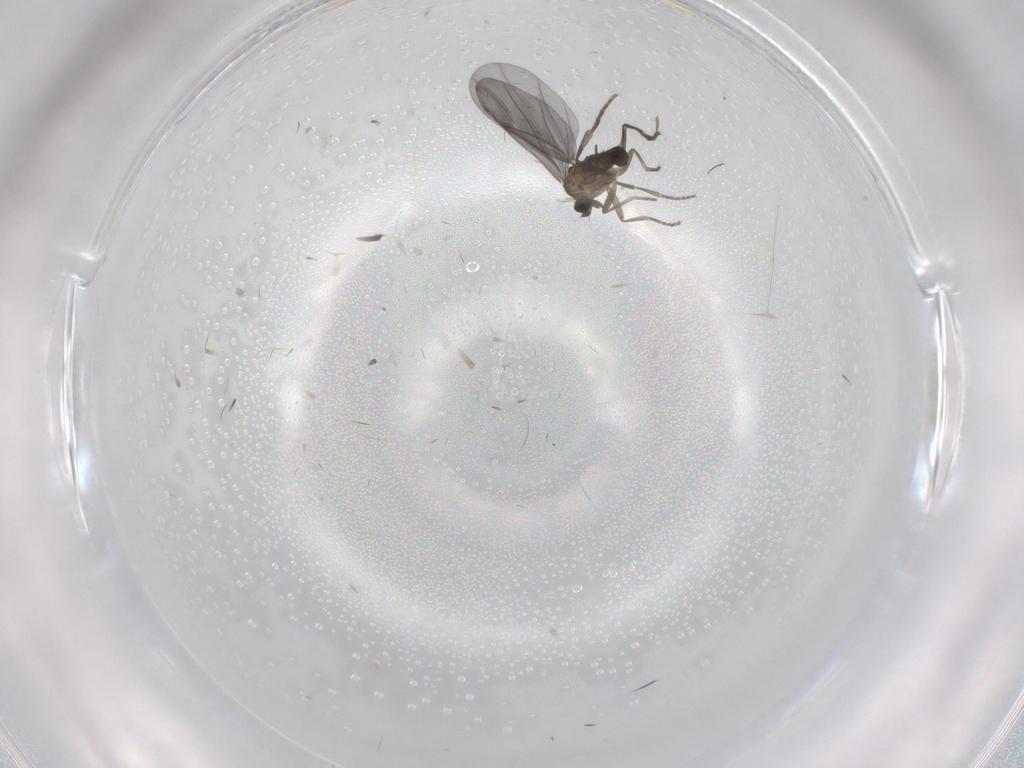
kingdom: Animalia
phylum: Arthropoda
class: Insecta
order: Diptera
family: Phoridae
